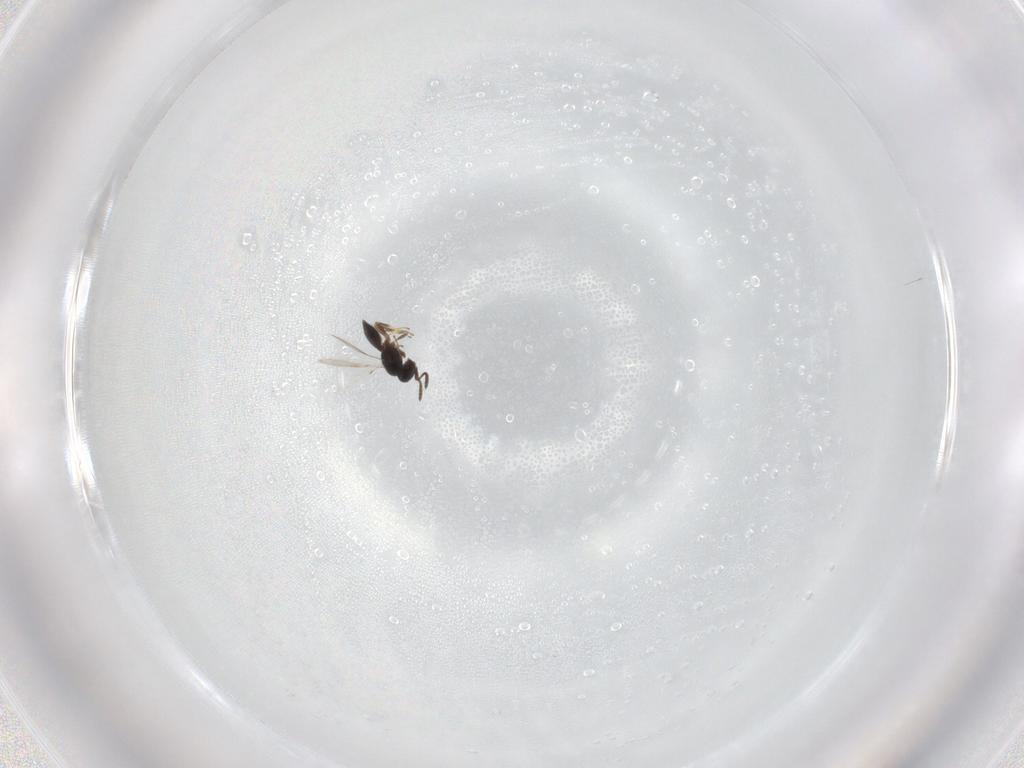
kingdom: Animalia
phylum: Arthropoda
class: Insecta
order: Hymenoptera
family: Scelionidae
